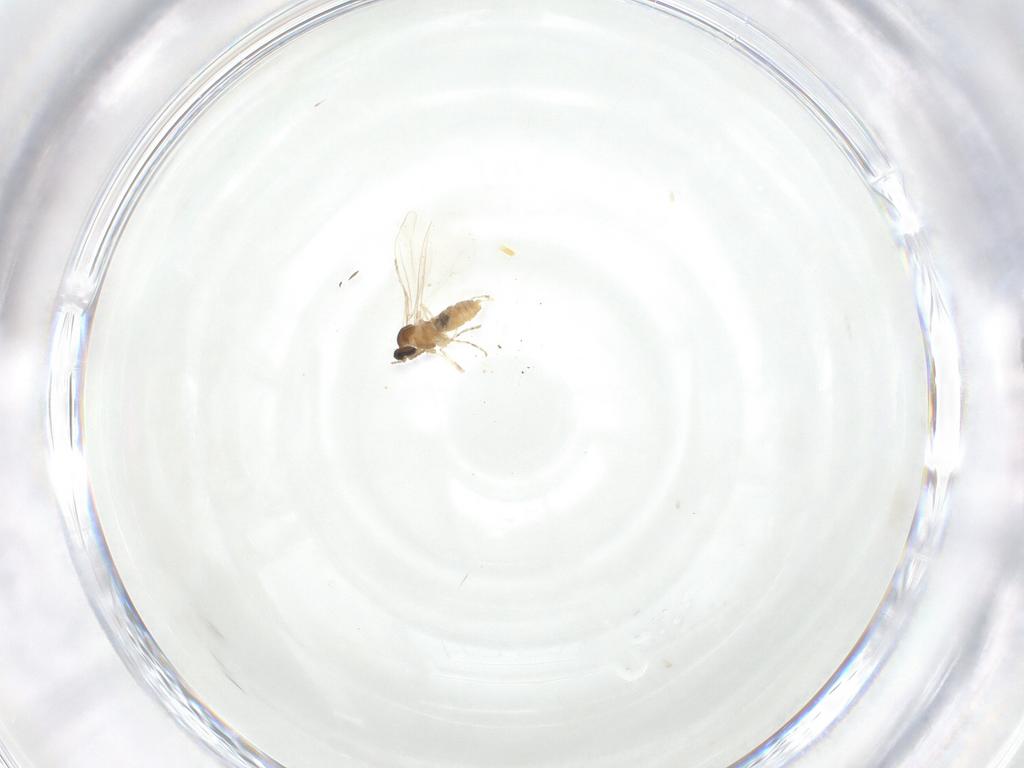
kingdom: Animalia
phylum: Arthropoda
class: Insecta
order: Diptera
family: Cecidomyiidae
